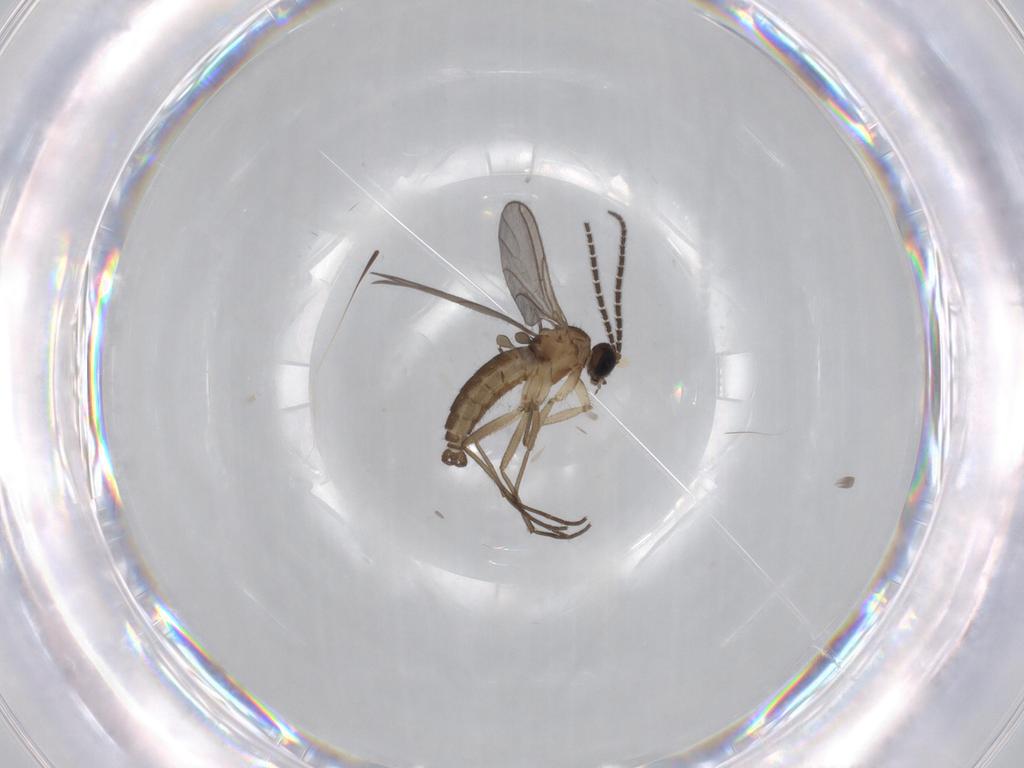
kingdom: Animalia
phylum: Arthropoda
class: Insecta
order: Diptera
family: Sciaridae
